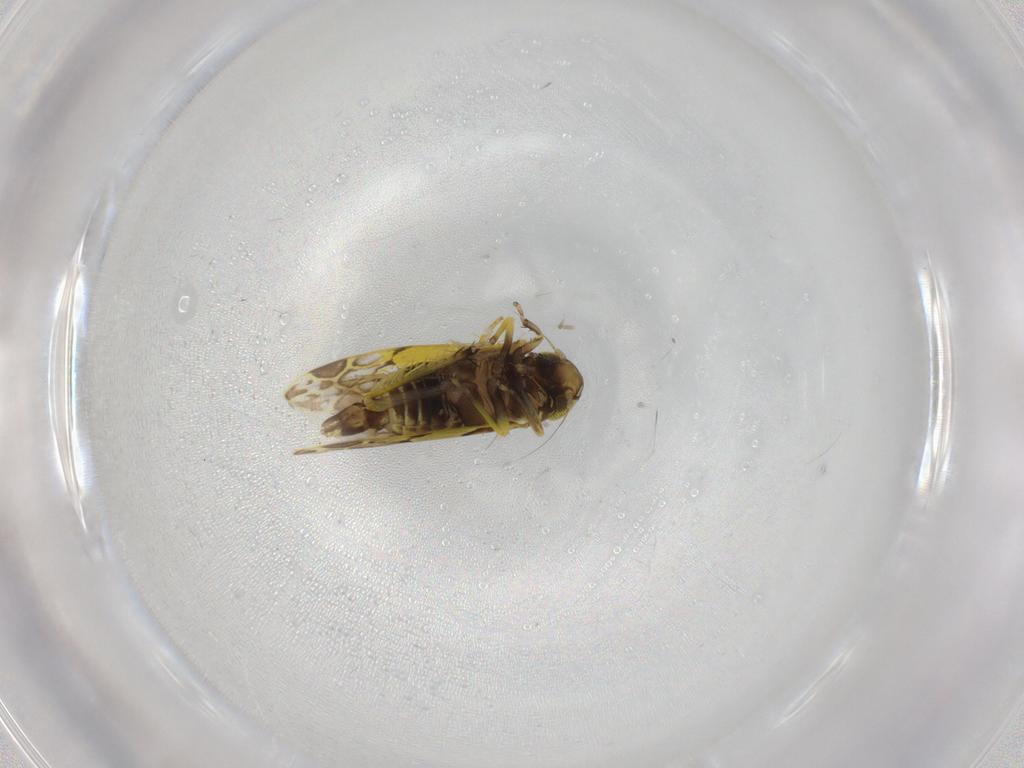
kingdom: Animalia
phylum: Arthropoda
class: Insecta
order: Hemiptera
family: Cicadellidae
